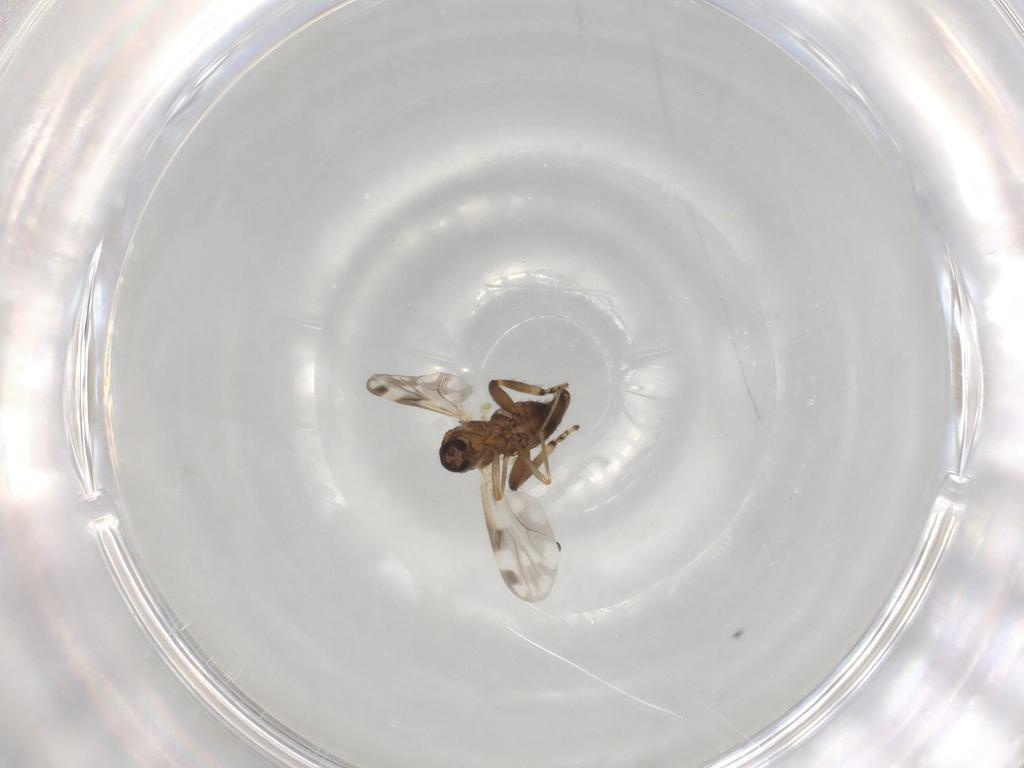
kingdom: Animalia
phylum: Arthropoda
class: Insecta
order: Diptera
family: Ceratopogonidae
